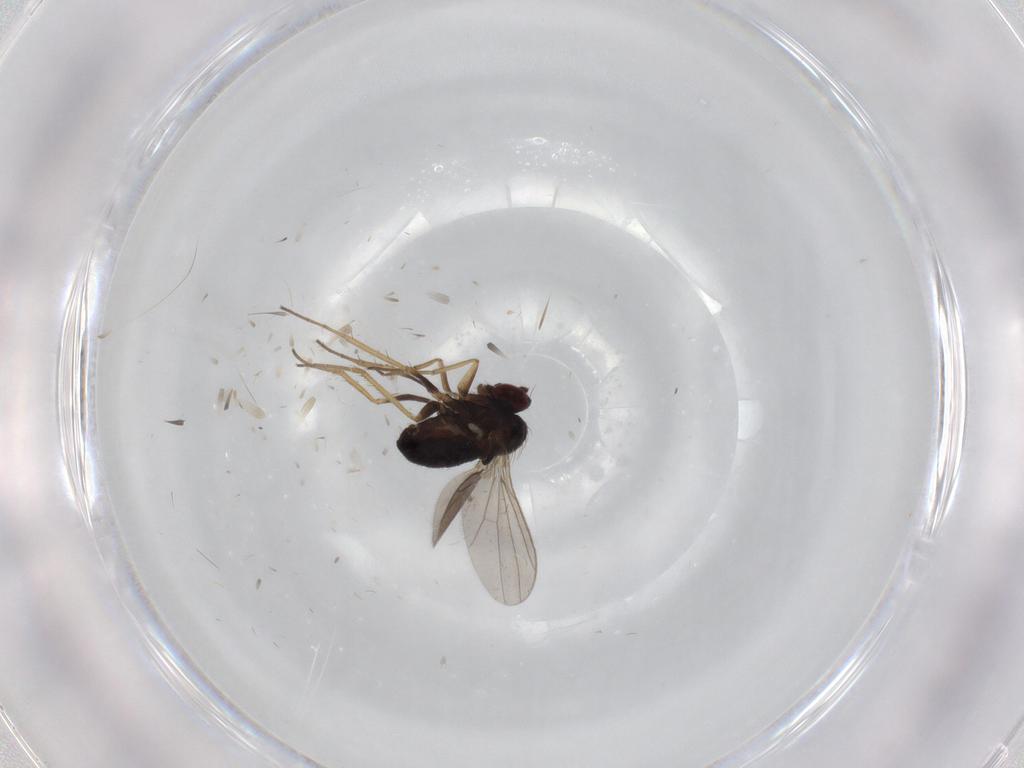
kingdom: Animalia
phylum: Arthropoda
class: Insecta
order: Diptera
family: Dolichopodidae
